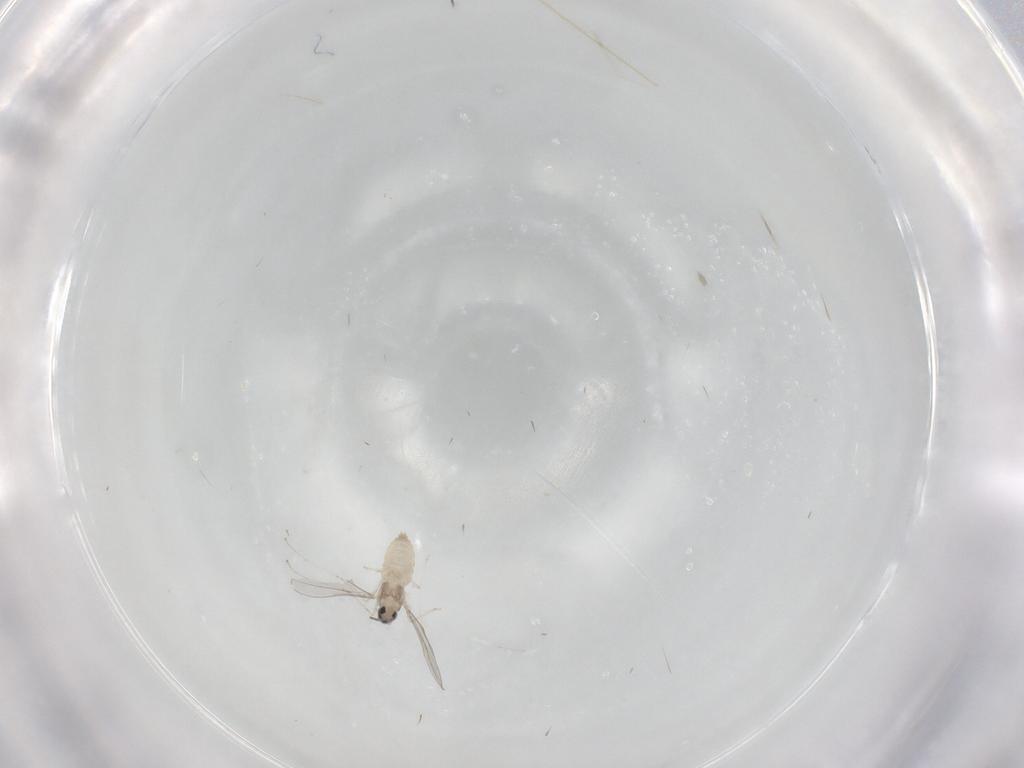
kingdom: Animalia
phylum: Arthropoda
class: Insecta
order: Diptera
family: Cecidomyiidae
